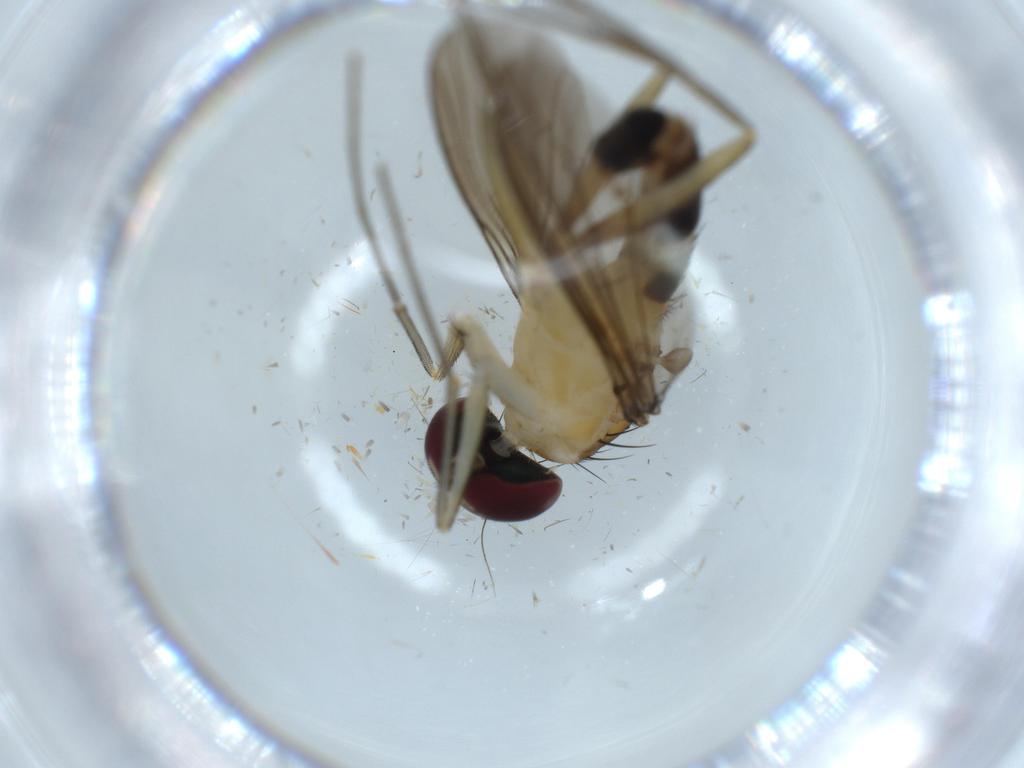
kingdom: Animalia
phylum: Arthropoda
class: Insecta
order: Diptera
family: Dolichopodidae
